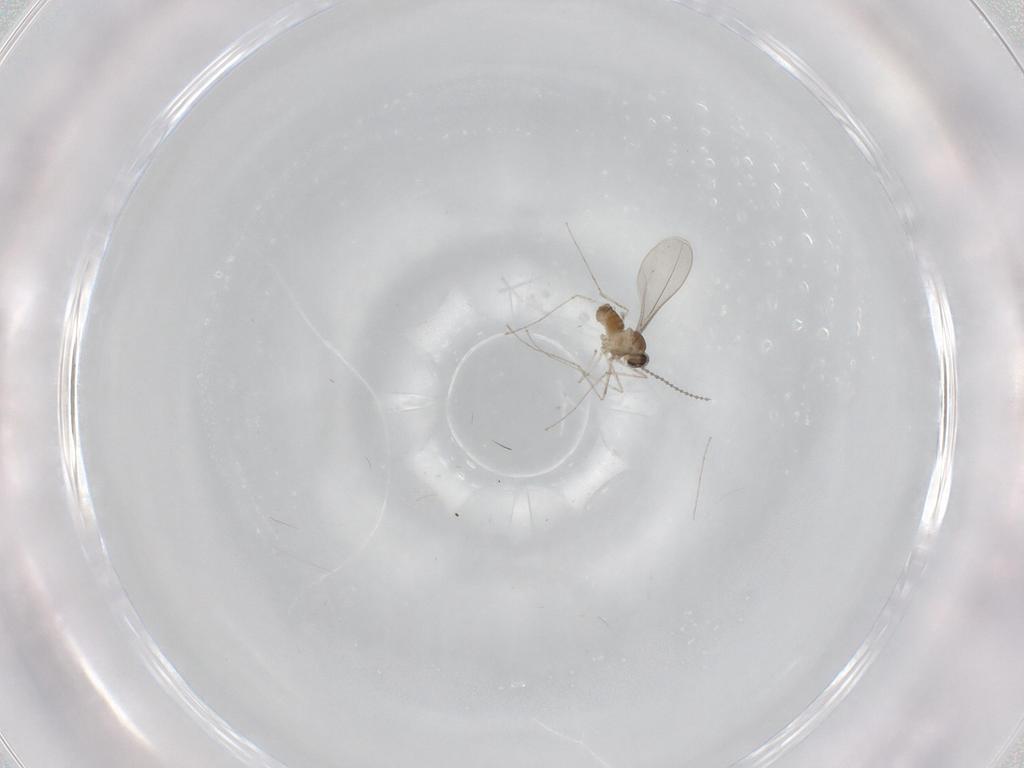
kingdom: Animalia
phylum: Arthropoda
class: Insecta
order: Diptera
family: Cecidomyiidae
